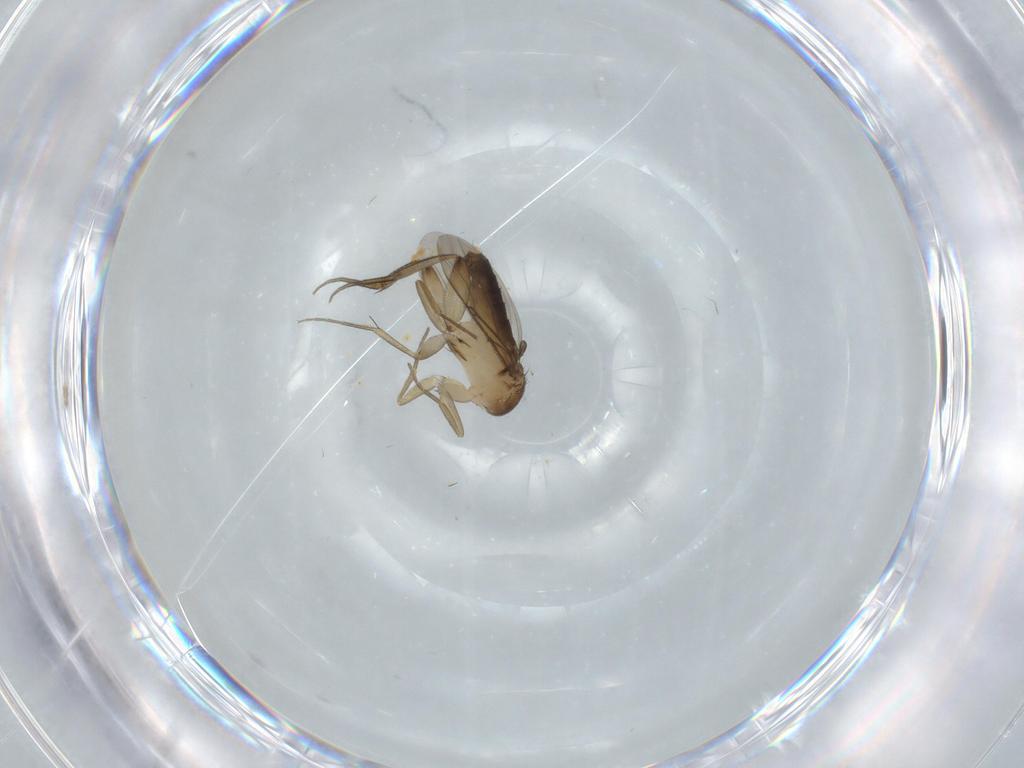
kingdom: Animalia
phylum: Arthropoda
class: Insecta
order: Diptera
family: Phoridae
